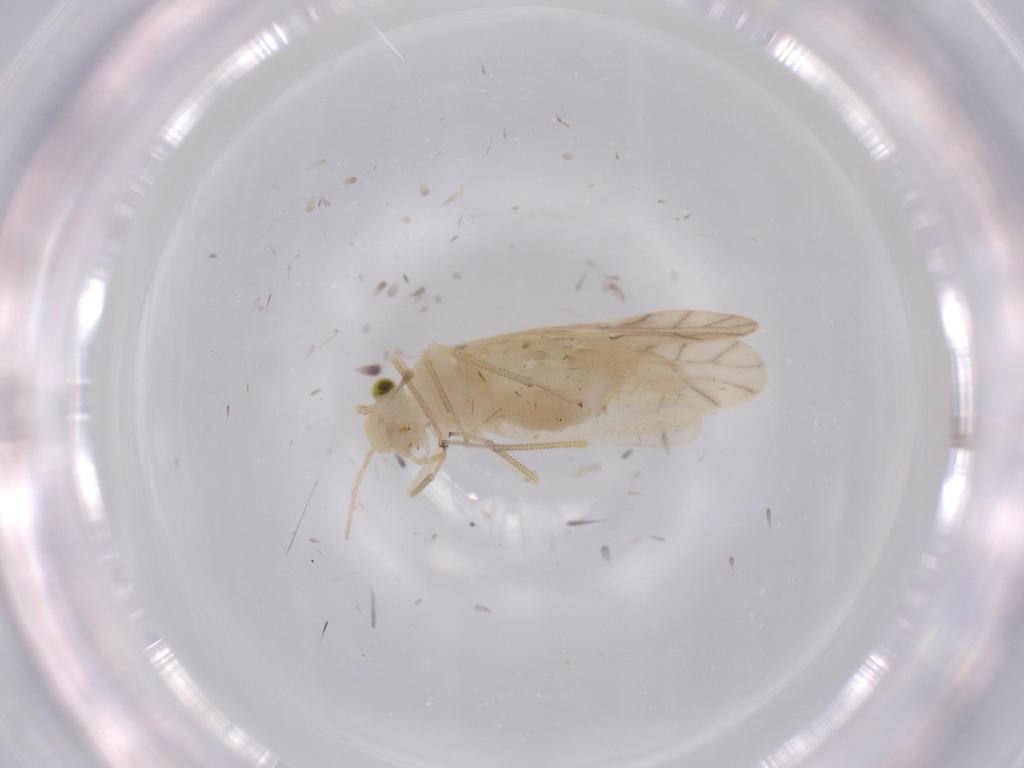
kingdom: Animalia
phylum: Arthropoda
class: Insecta
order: Psocodea
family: Caeciliusidae
